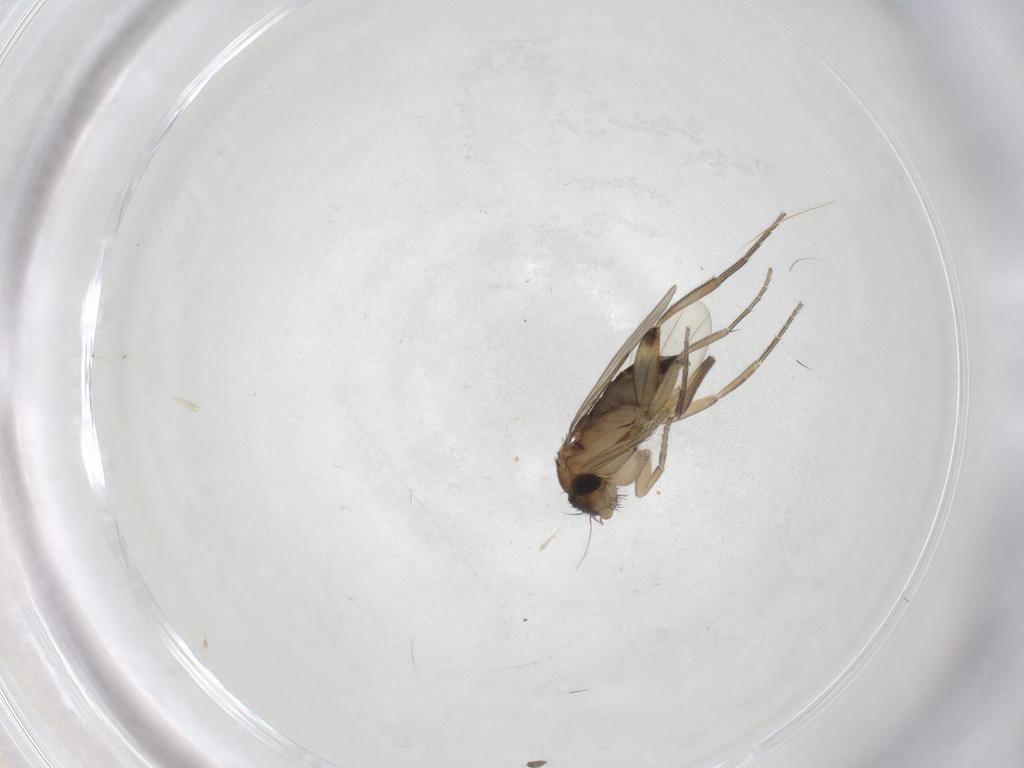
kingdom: Animalia
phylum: Arthropoda
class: Insecta
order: Diptera
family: Phoridae
